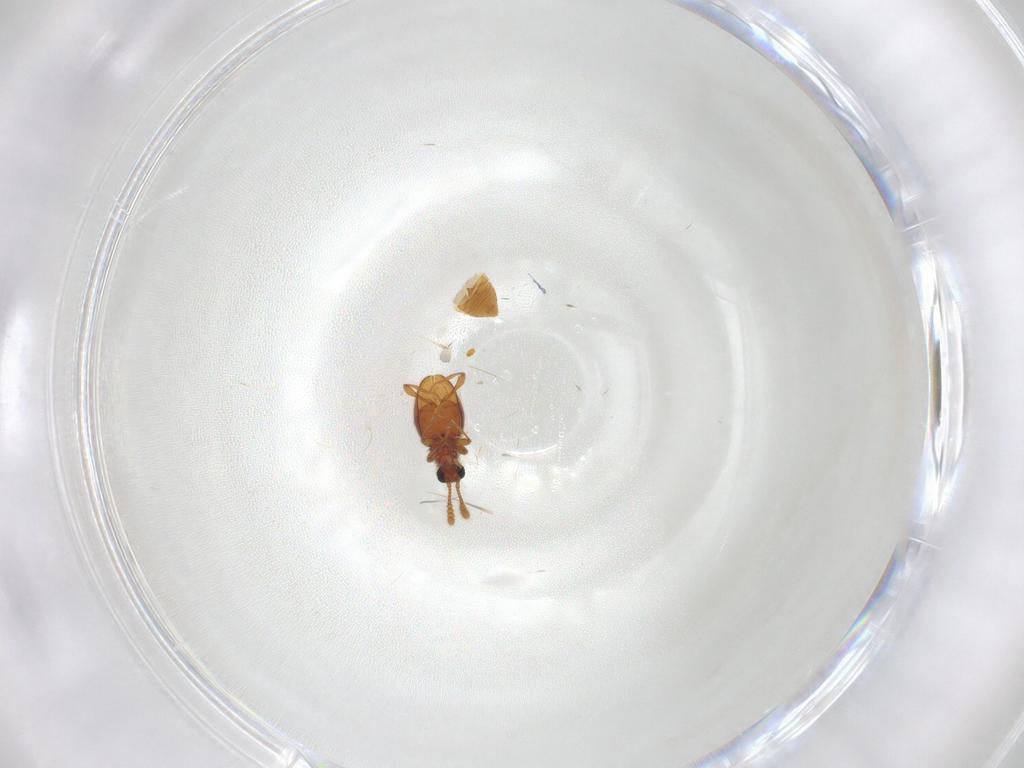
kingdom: Animalia
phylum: Arthropoda
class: Insecta
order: Coleoptera
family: Staphylinidae
